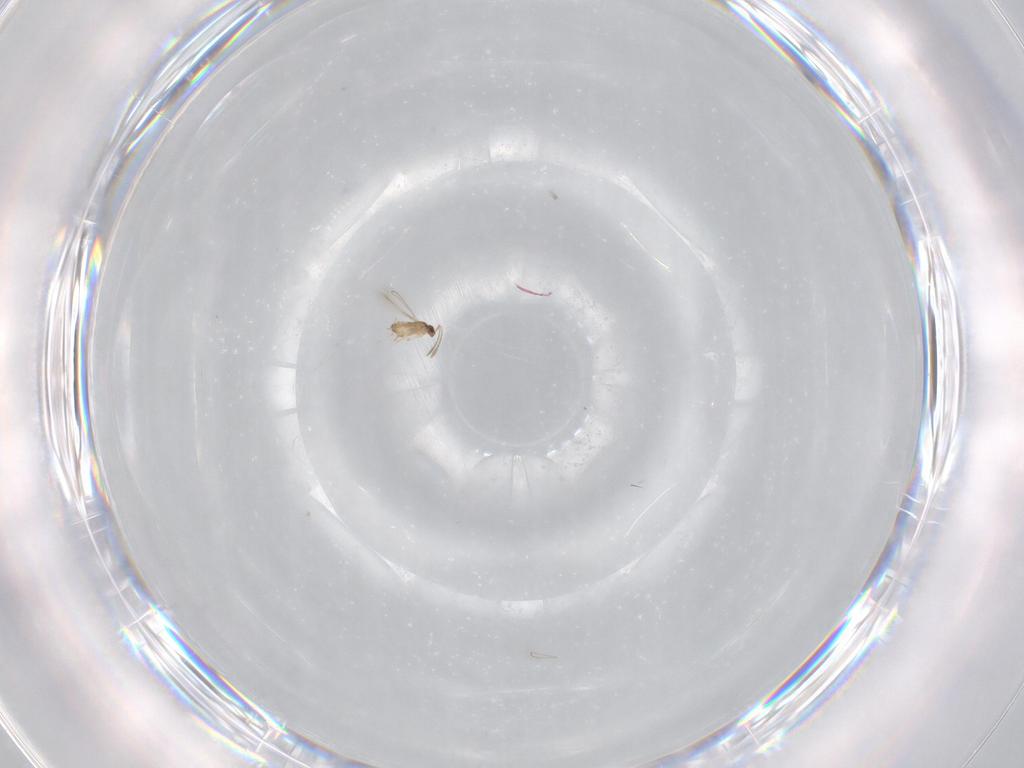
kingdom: Animalia
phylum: Arthropoda
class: Insecta
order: Hymenoptera
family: Mymaridae
